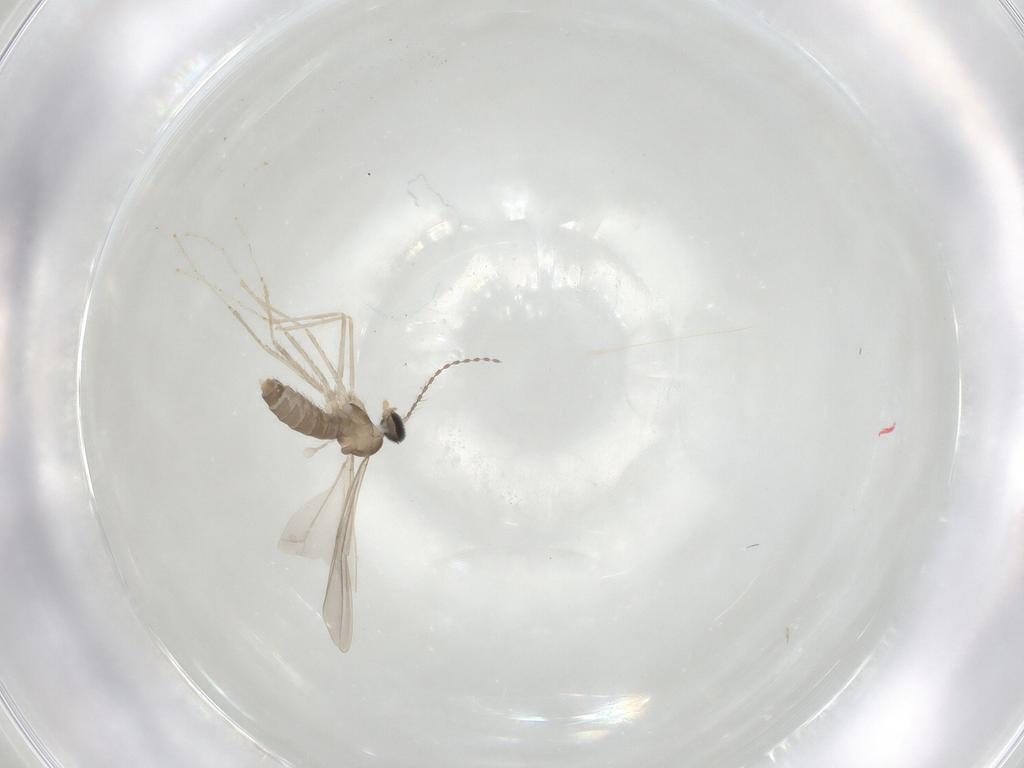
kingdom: Animalia
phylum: Arthropoda
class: Insecta
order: Diptera
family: Cecidomyiidae
